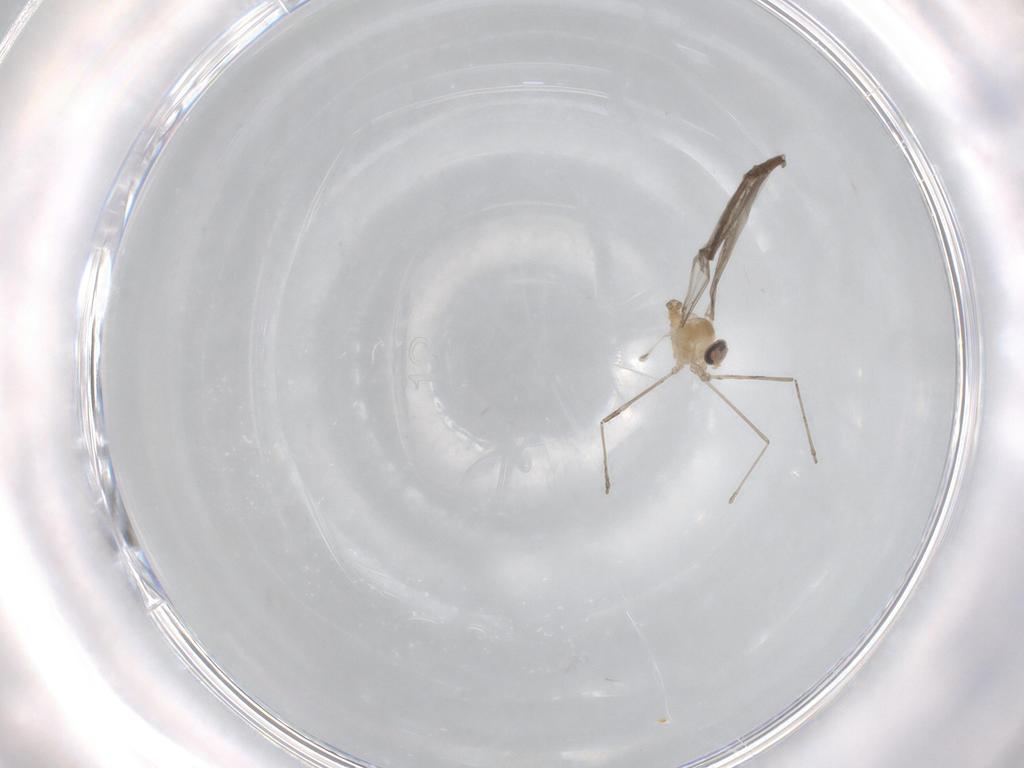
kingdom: Animalia
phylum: Arthropoda
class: Insecta
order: Diptera
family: Cecidomyiidae
